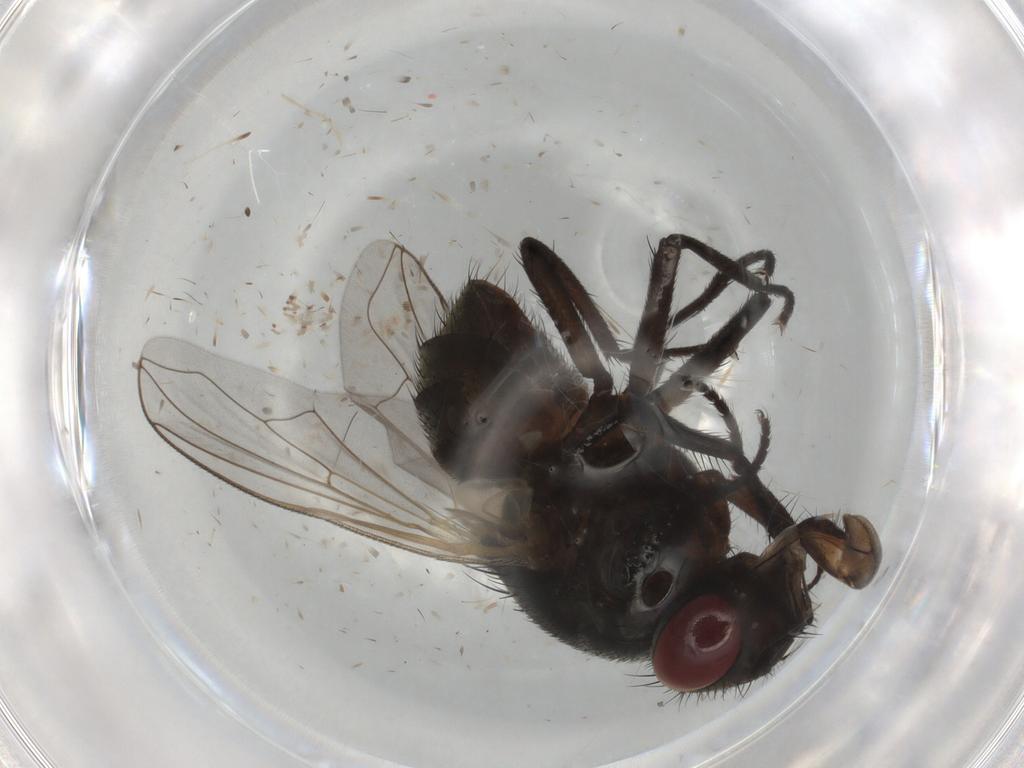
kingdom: Animalia
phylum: Arthropoda
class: Insecta
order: Diptera
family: Muscidae
